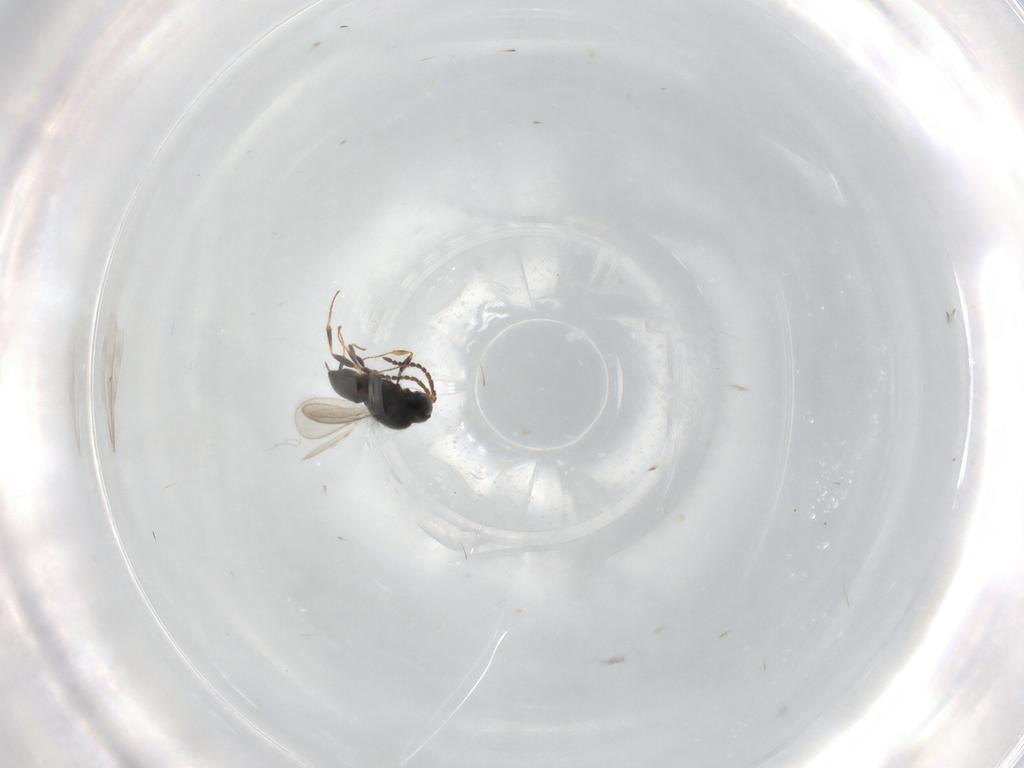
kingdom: Animalia
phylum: Arthropoda
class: Insecta
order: Hymenoptera
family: Scelionidae
